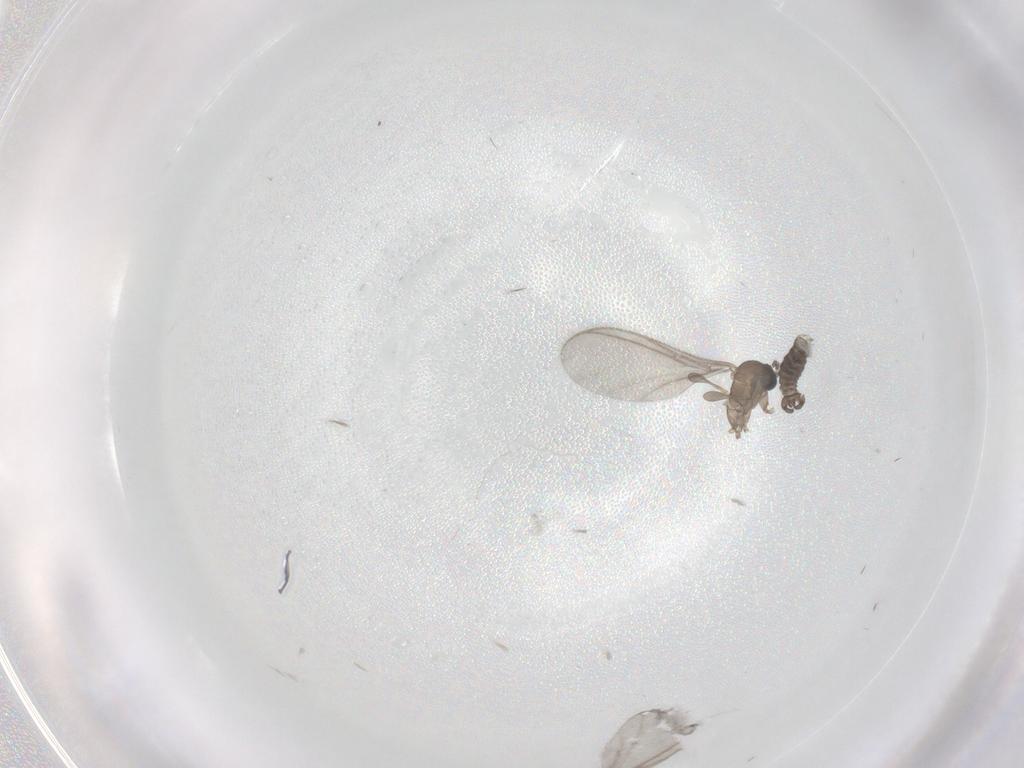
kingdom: Animalia
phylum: Arthropoda
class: Insecta
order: Diptera
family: Sciaridae
